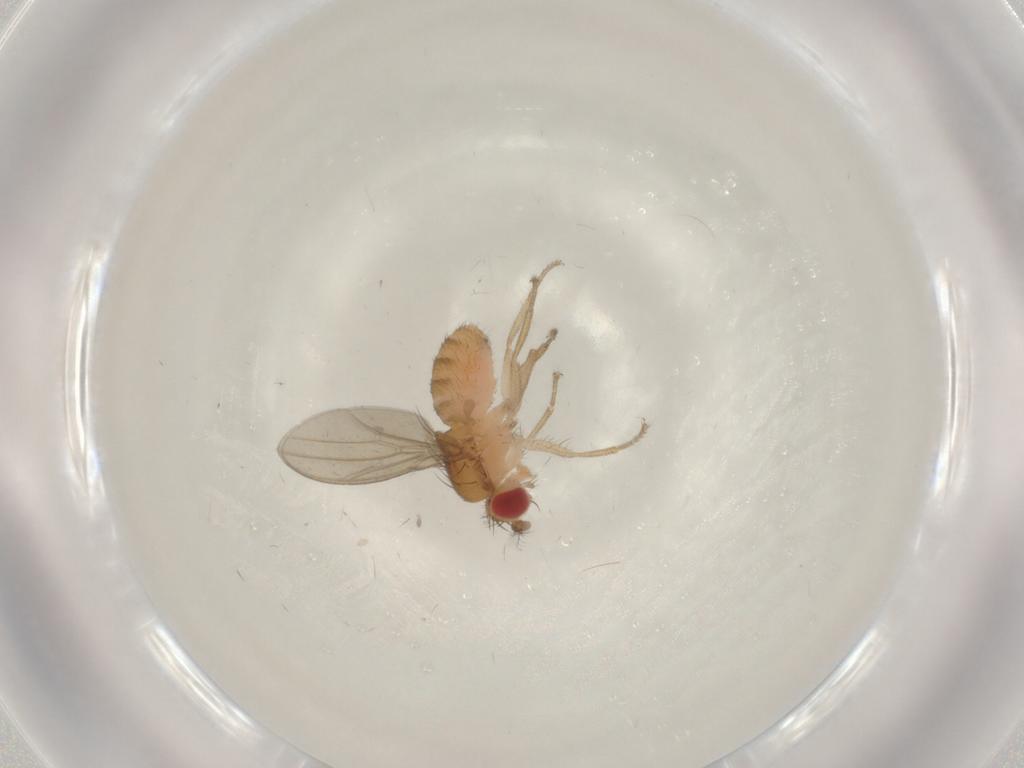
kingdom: Animalia
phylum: Arthropoda
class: Insecta
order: Diptera
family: Drosophilidae
